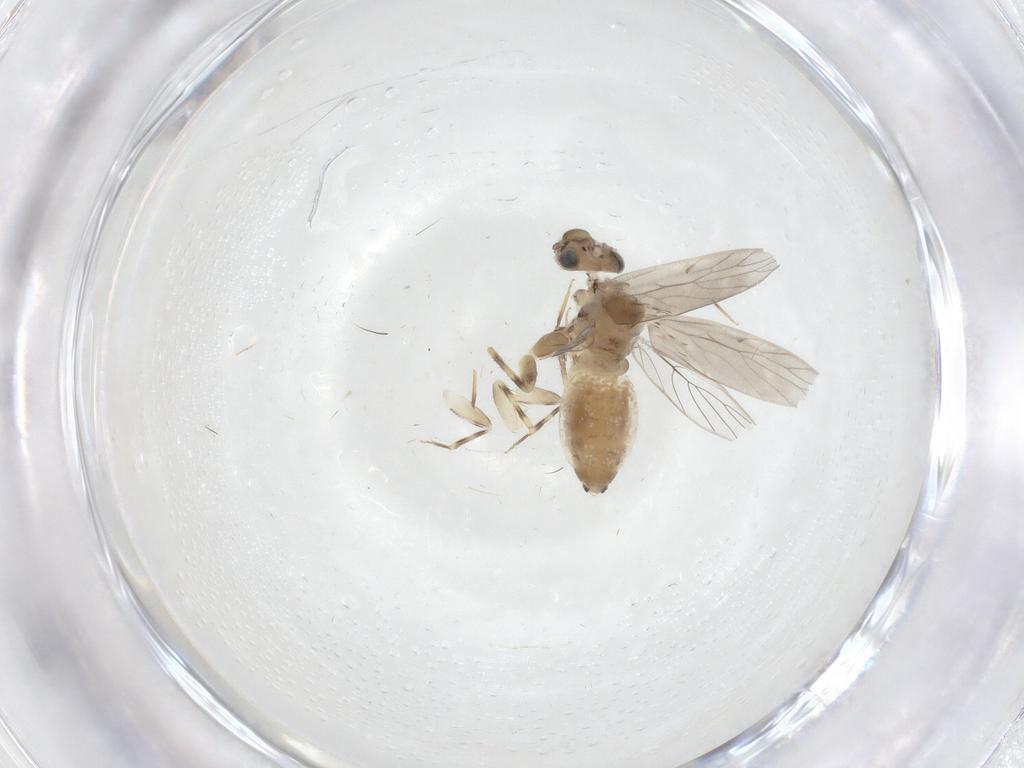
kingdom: Animalia
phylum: Arthropoda
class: Insecta
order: Psocodea
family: Lepidopsocidae
